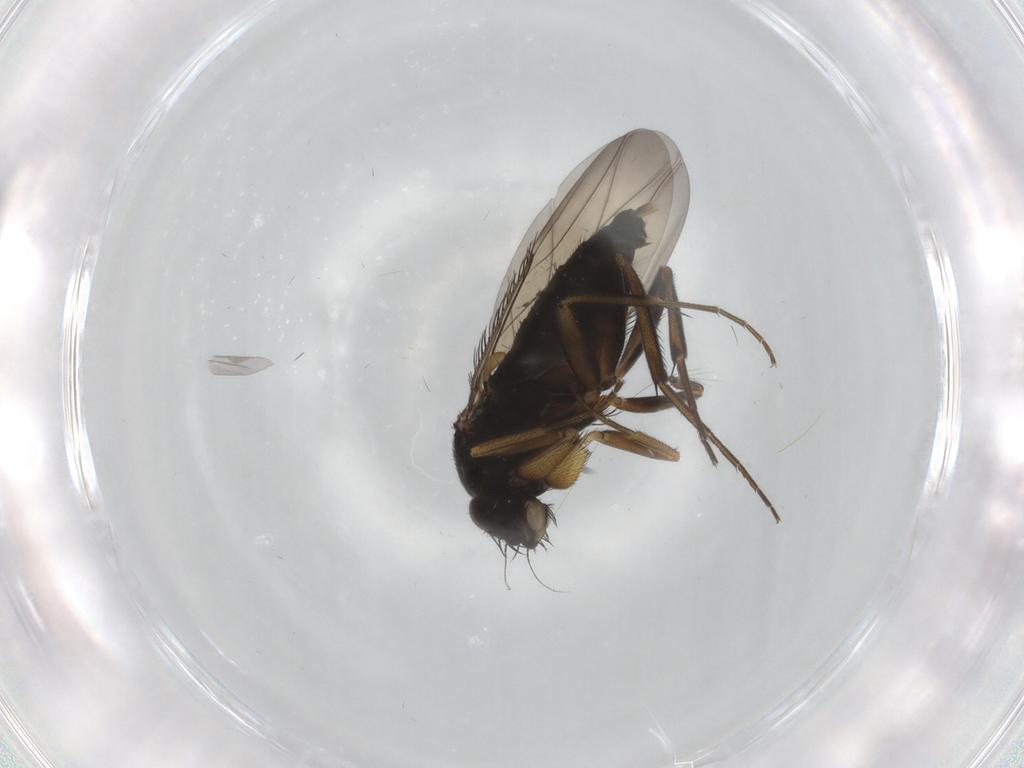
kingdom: Animalia
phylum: Arthropoda
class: Insecta
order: Diptera
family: Phoridae
